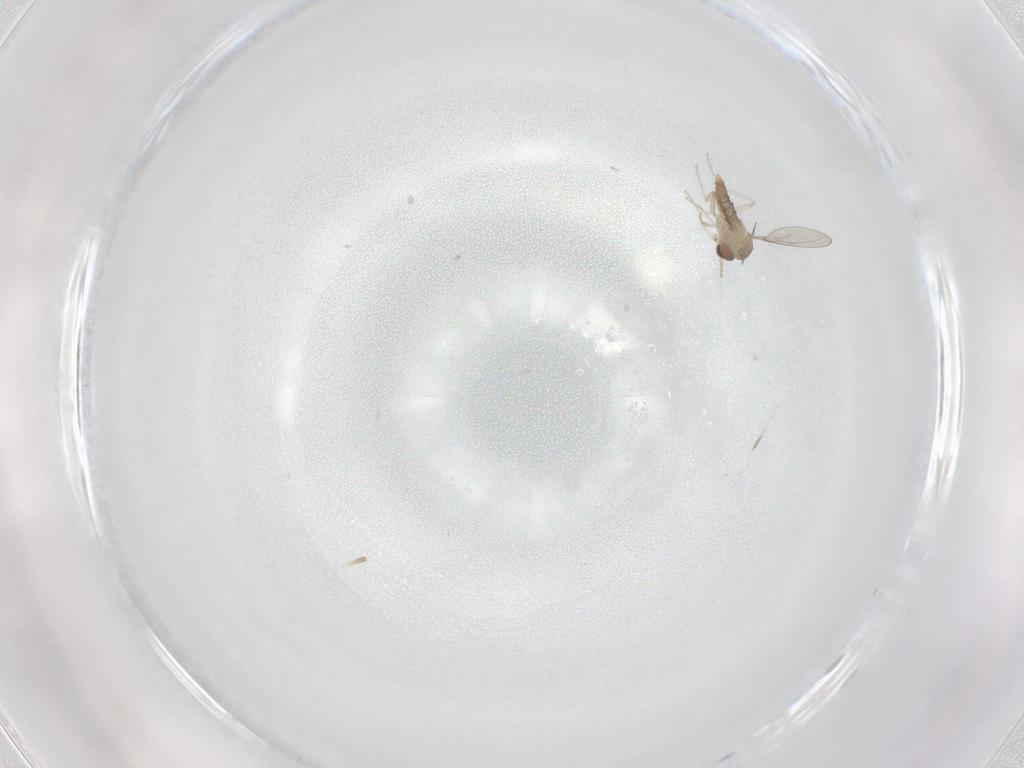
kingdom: Animalia
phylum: Arthropoda
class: Insecta
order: Diptera
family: Cecidomyiidae
